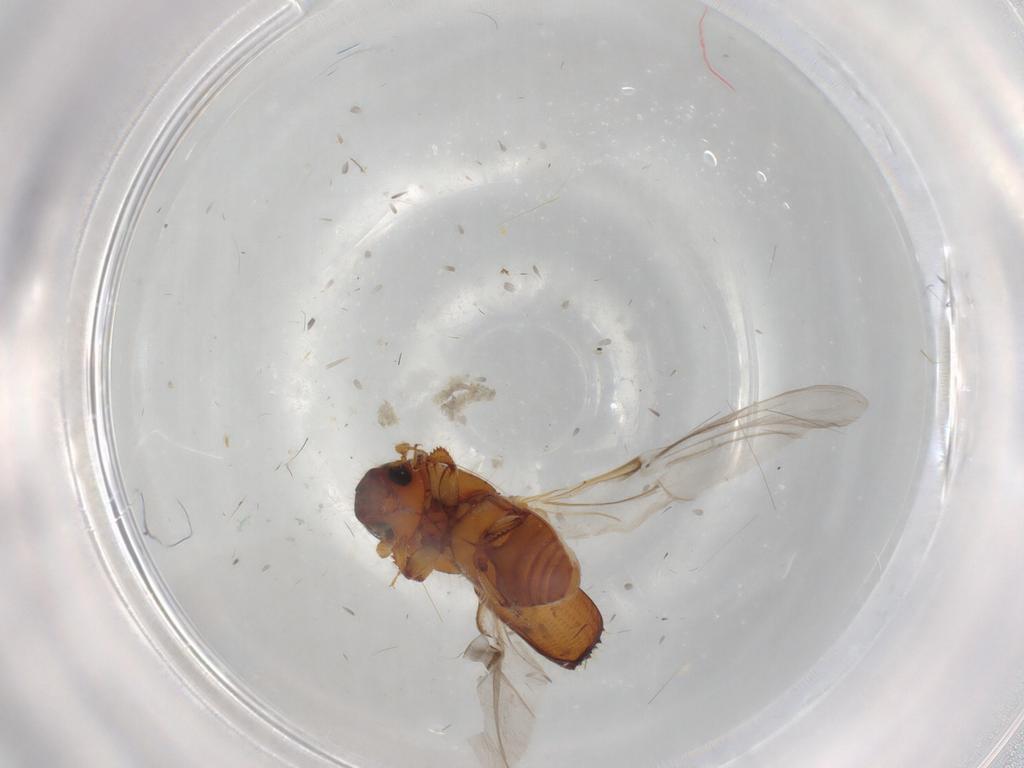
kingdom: Animalia
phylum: Arthropoda
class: Insecta
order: Coleoptera
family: Curculionidae
